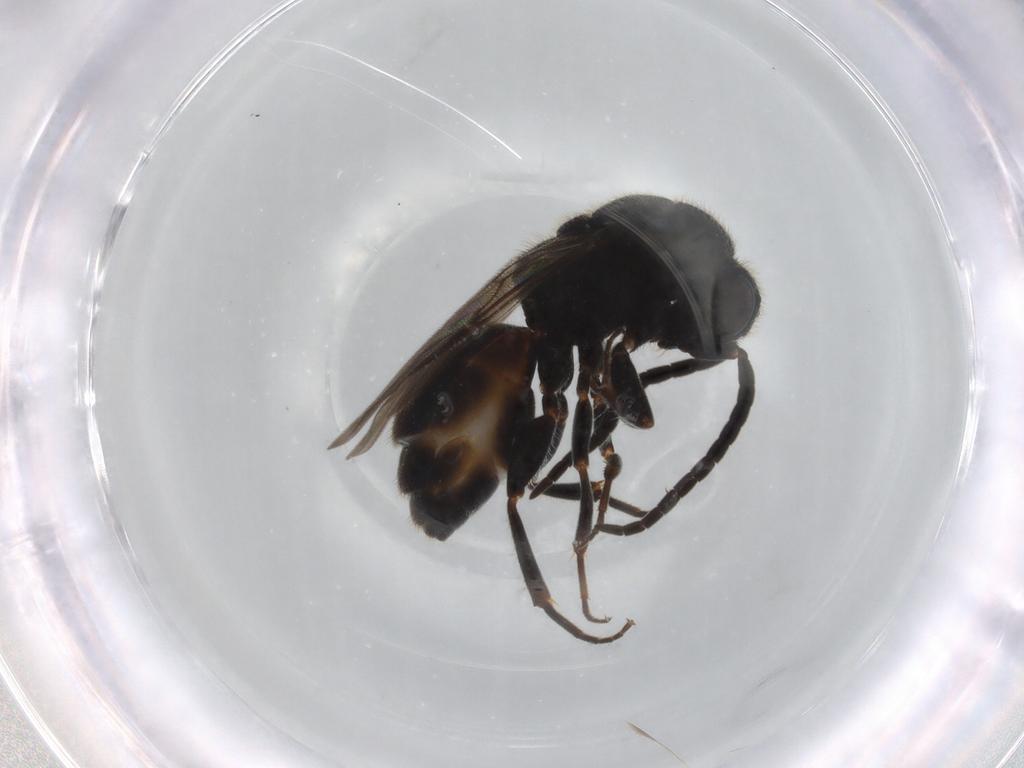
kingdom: Animalia
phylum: Arthropoda
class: Insecta
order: Hymenoptera
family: Chrysididae
